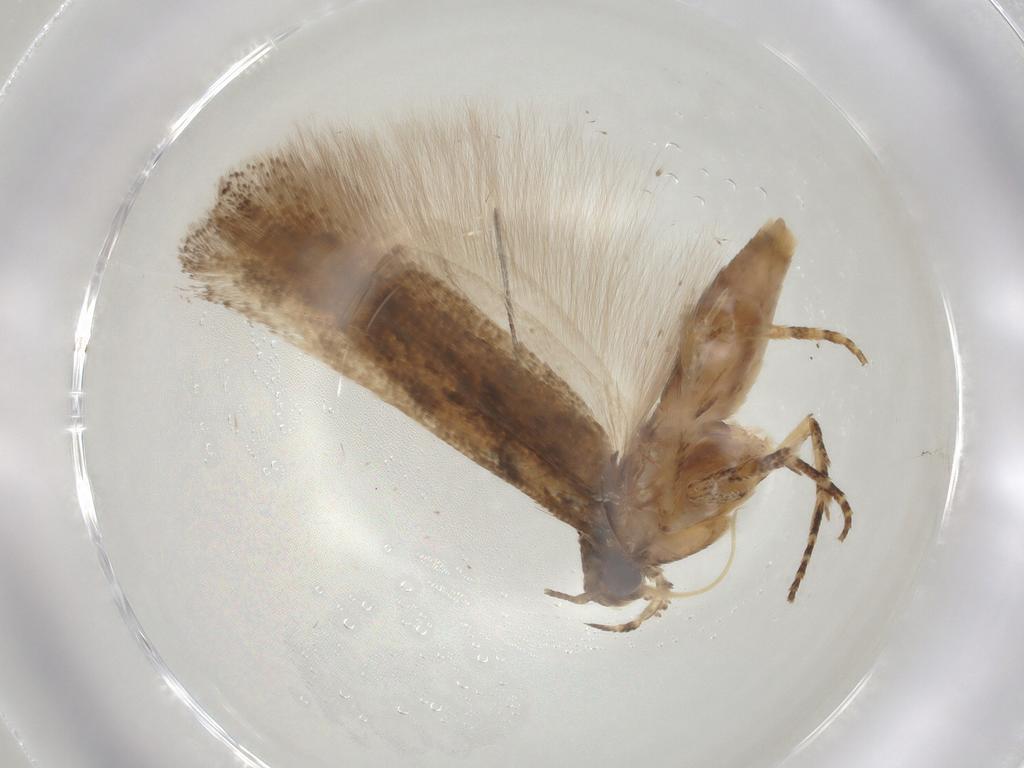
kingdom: Animalia
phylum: Arthropoda
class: Insecta
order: Lepidoptera
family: Gelechiidae
